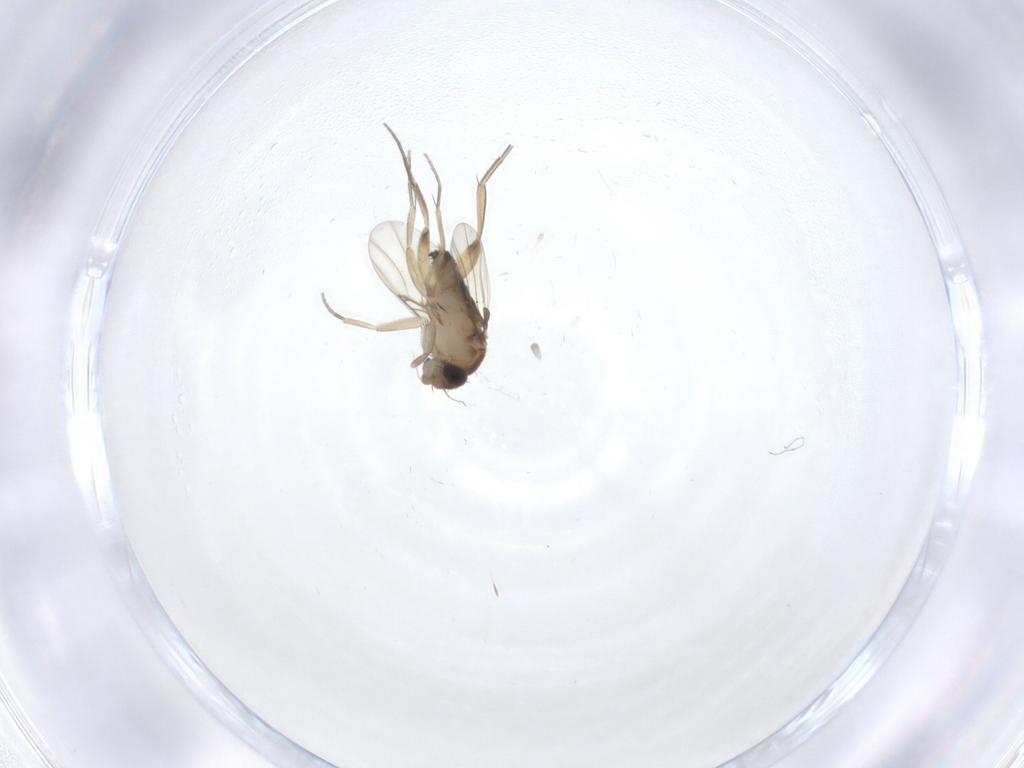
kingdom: Animalia
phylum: Arthropoda
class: Insecta
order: Diptera
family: Phoridae
